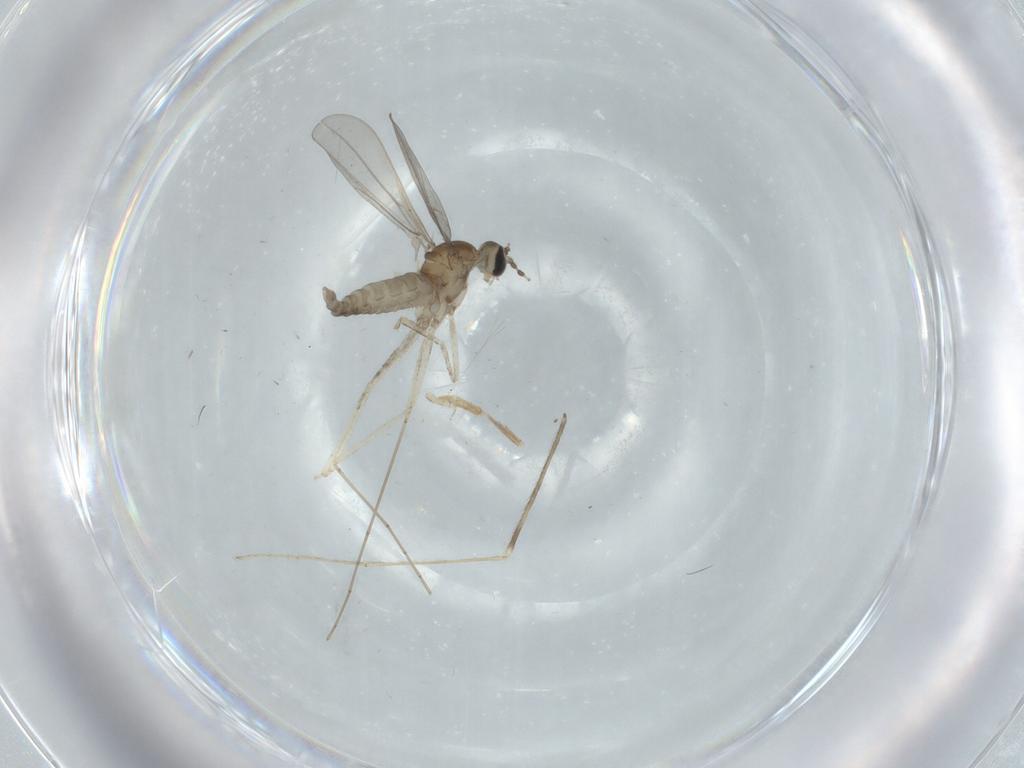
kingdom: Animalia
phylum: Arthropoda
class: Insecta
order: Diptera
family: Limoniidae
